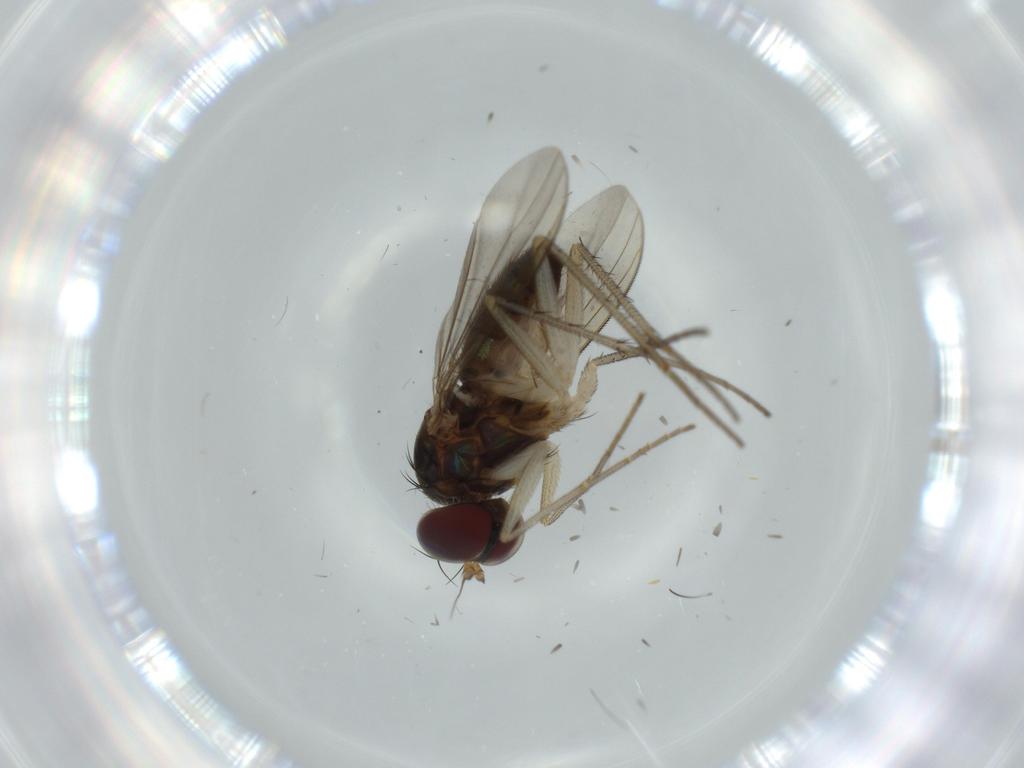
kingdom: Animalia
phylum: Arthropoda
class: Insecta
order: Diptera
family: Dolichopodidae
